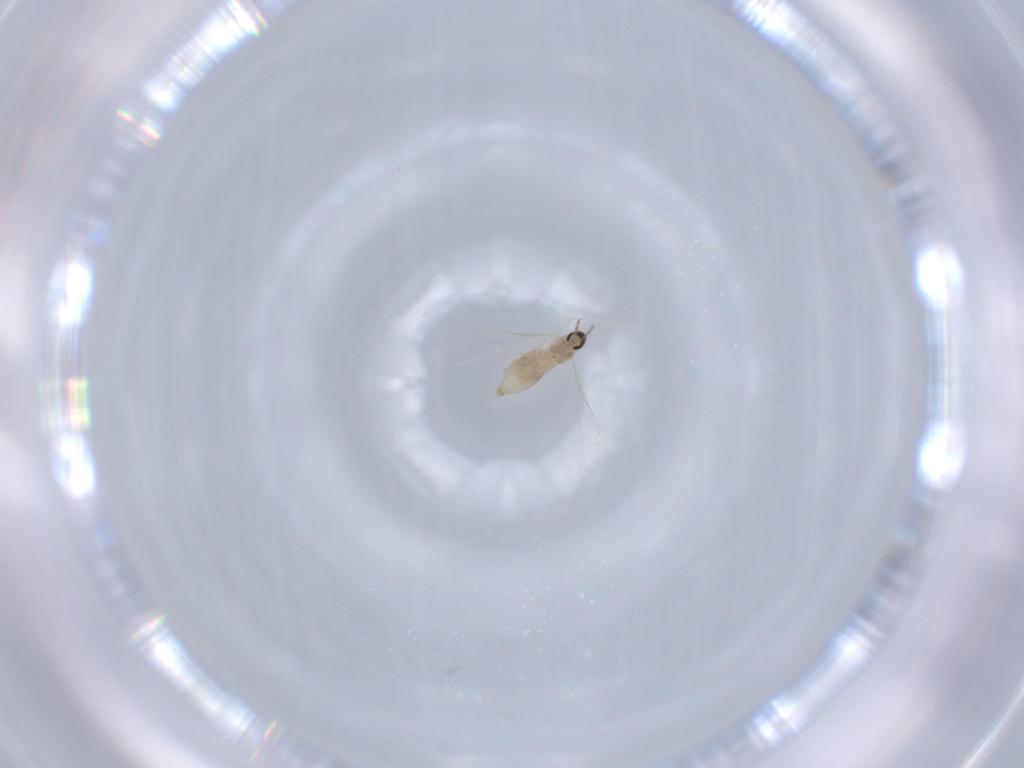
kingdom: Animalia
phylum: Arthropoda
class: Insecta
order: Diptera
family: Cecidomyiidae
